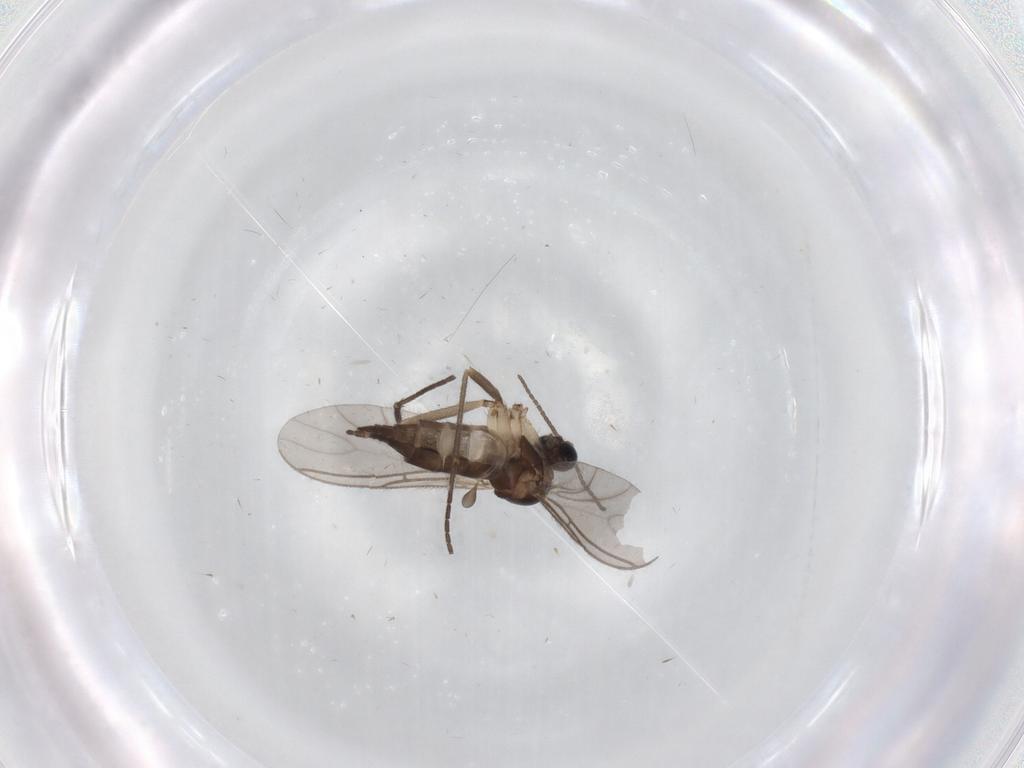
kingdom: Animalia
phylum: Arthropoda
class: Insecta
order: Diptera
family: Sciaridae
